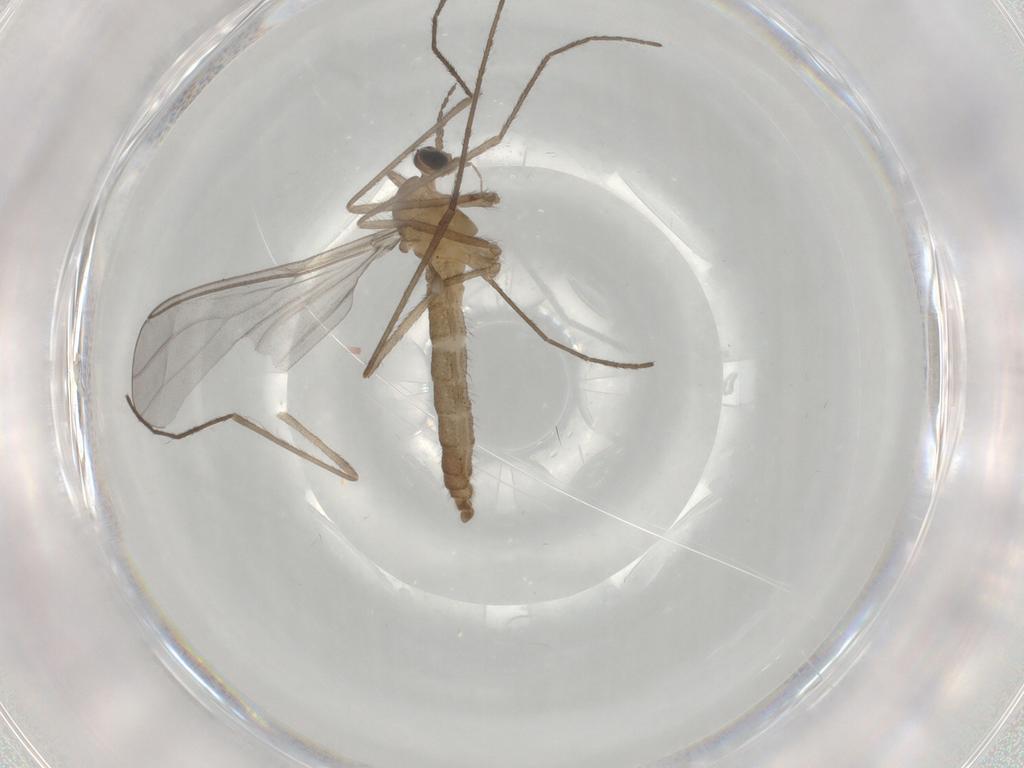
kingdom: Animalia
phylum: Arthropoda
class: Insecta
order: Diptera
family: Cecidomyiidae
